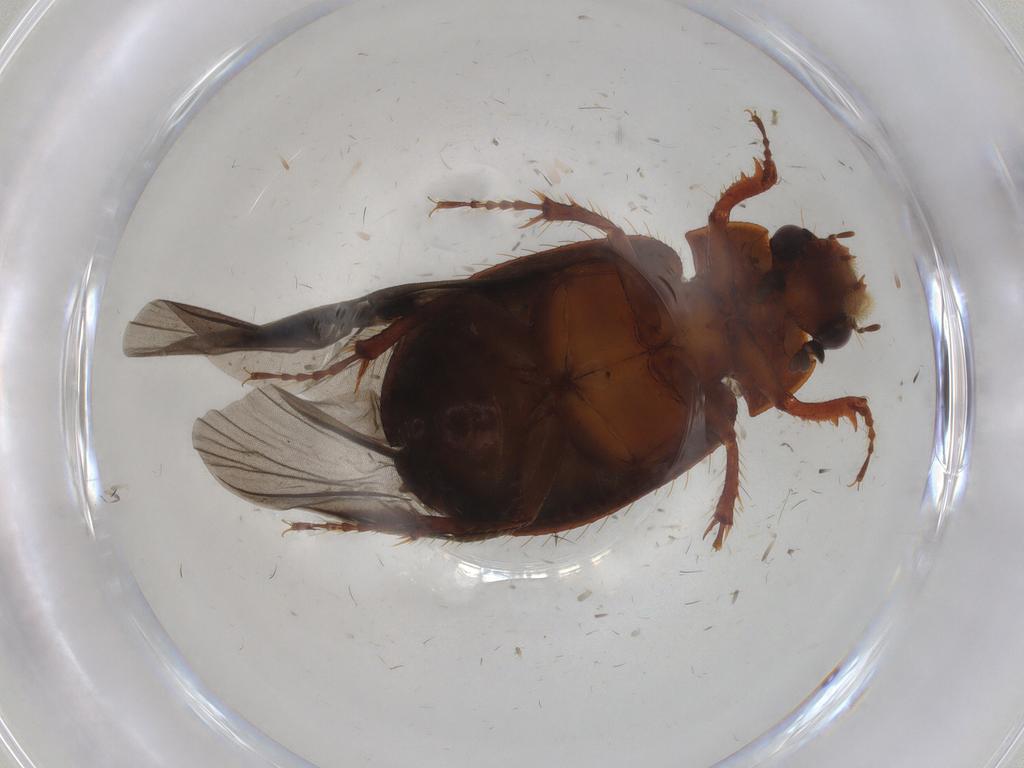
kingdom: Animalia
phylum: Arthropoda
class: Insecta
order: Coleoptera
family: Hybosoridae
